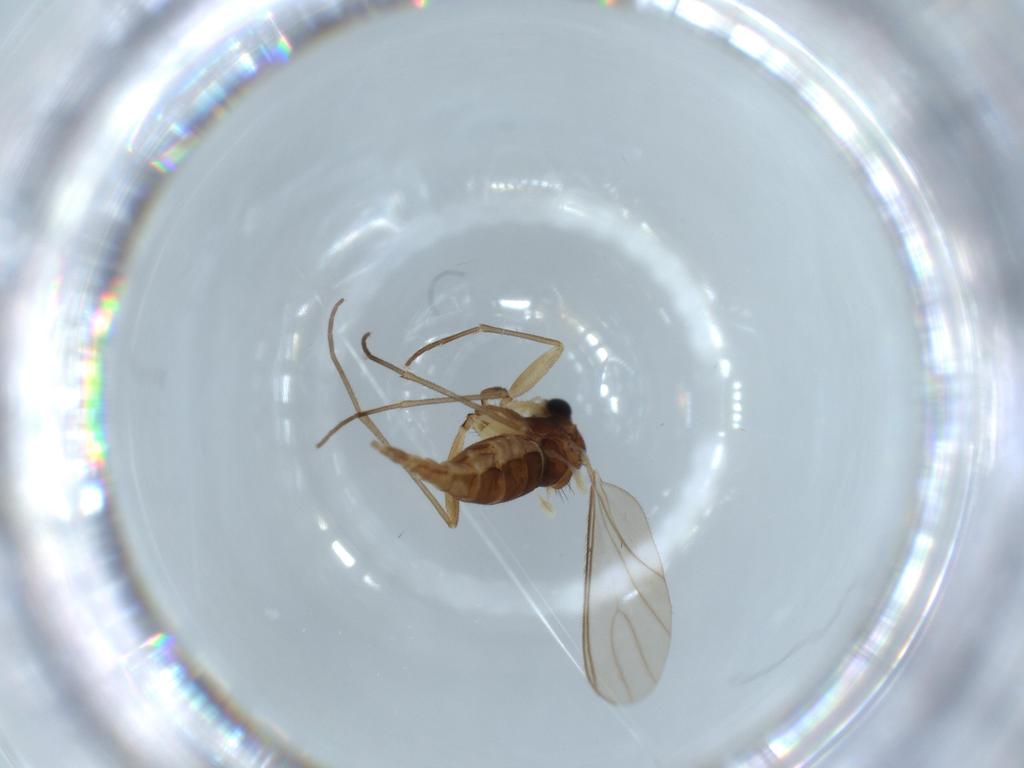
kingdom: Animalia
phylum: Arthropoda
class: Insecta
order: Diptera
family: Sciaridae
